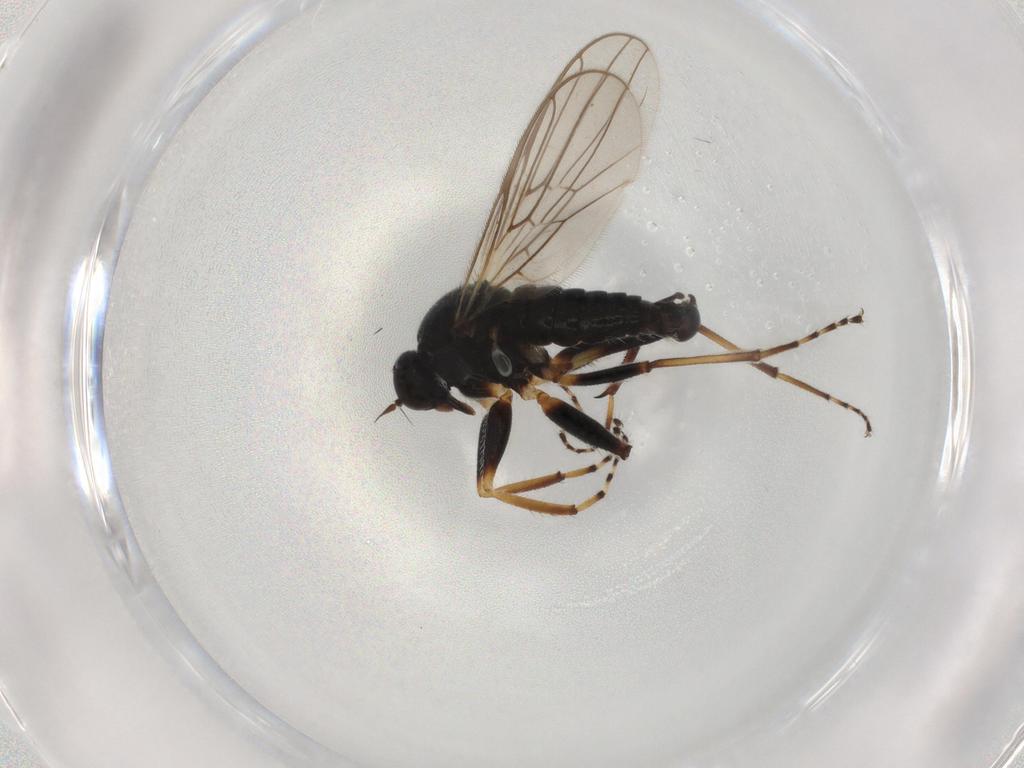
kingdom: Animalia
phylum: Arthropoda
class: Insecta
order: Diptera
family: Hybotidae
